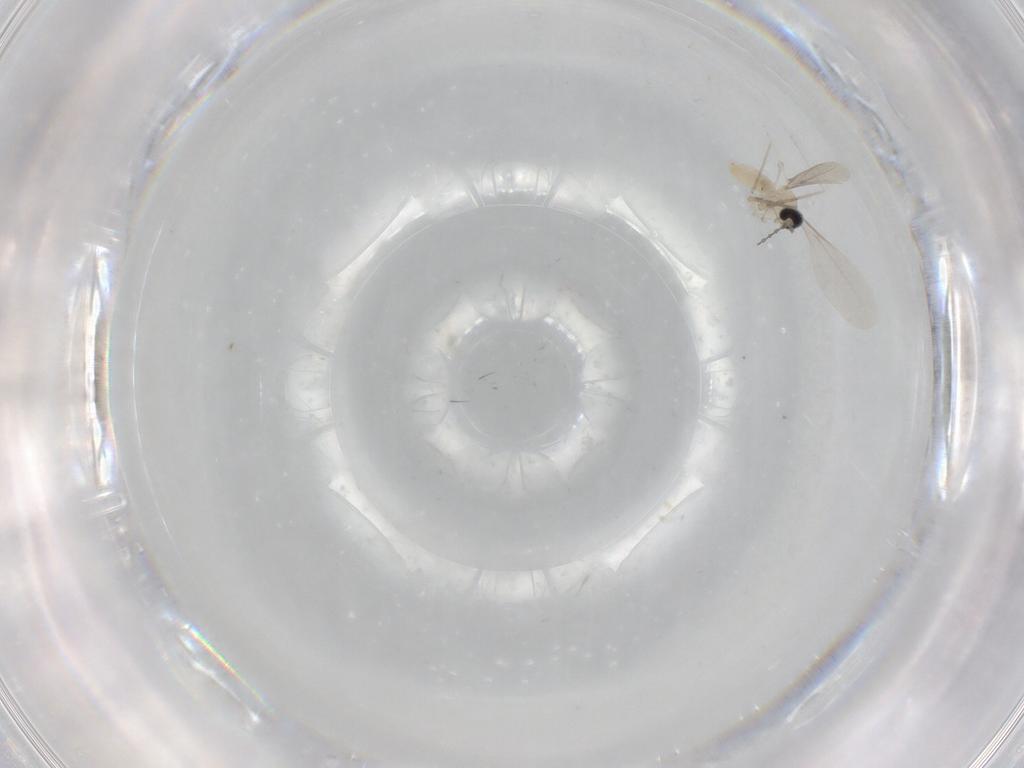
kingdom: Animalia
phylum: Arthropoda
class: Insecta
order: Diptera
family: Cecidomyiidae
